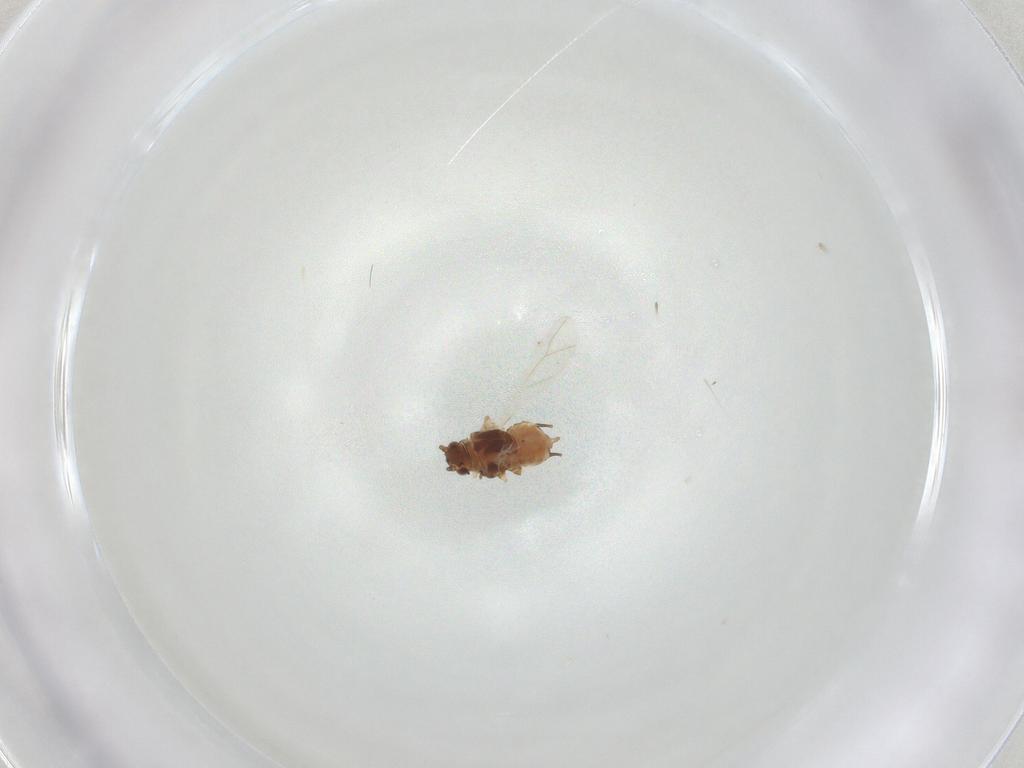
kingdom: Animalia
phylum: Arthropoda
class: Insecta
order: Hemiptera
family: Aphididae
